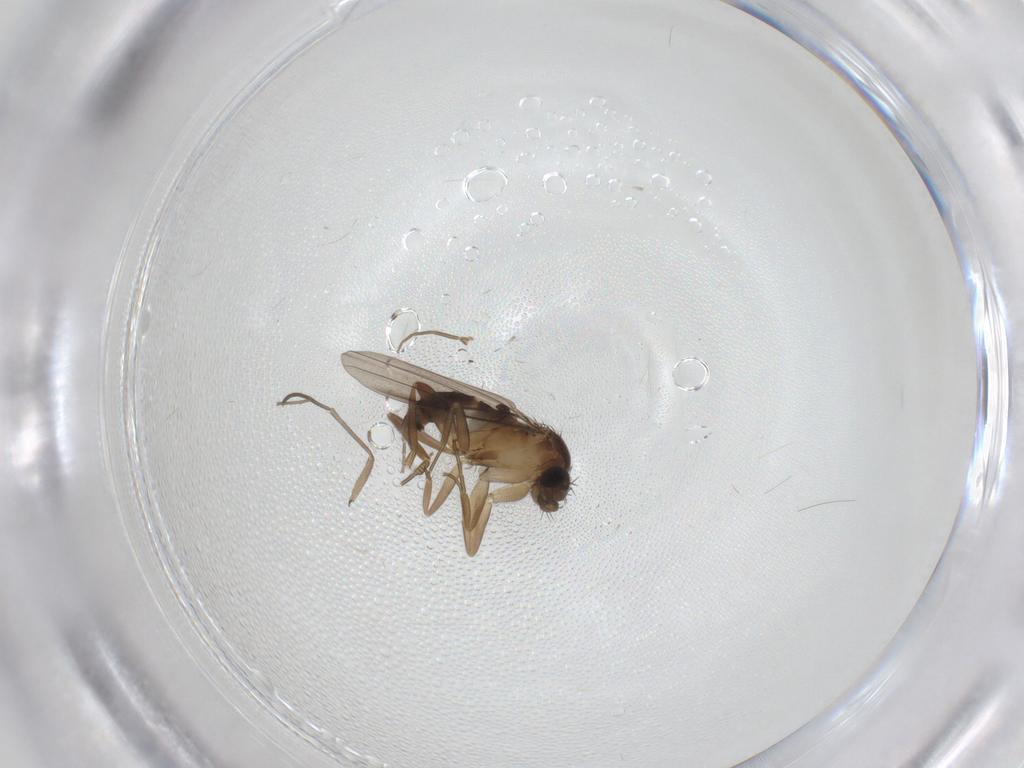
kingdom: Animalia
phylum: Arthropoda
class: Insecta
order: Diptera
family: Sciaridae
